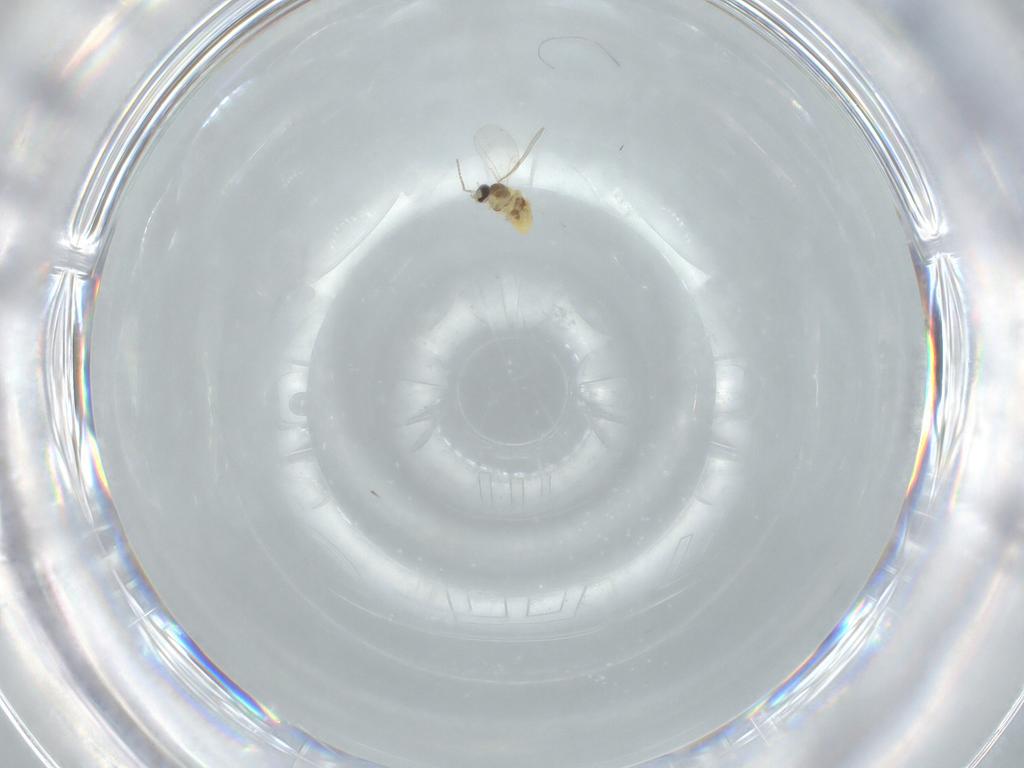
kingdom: Animalia
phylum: Arthropoda
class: Insecta
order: Diptera
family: Cecidomyiidae
